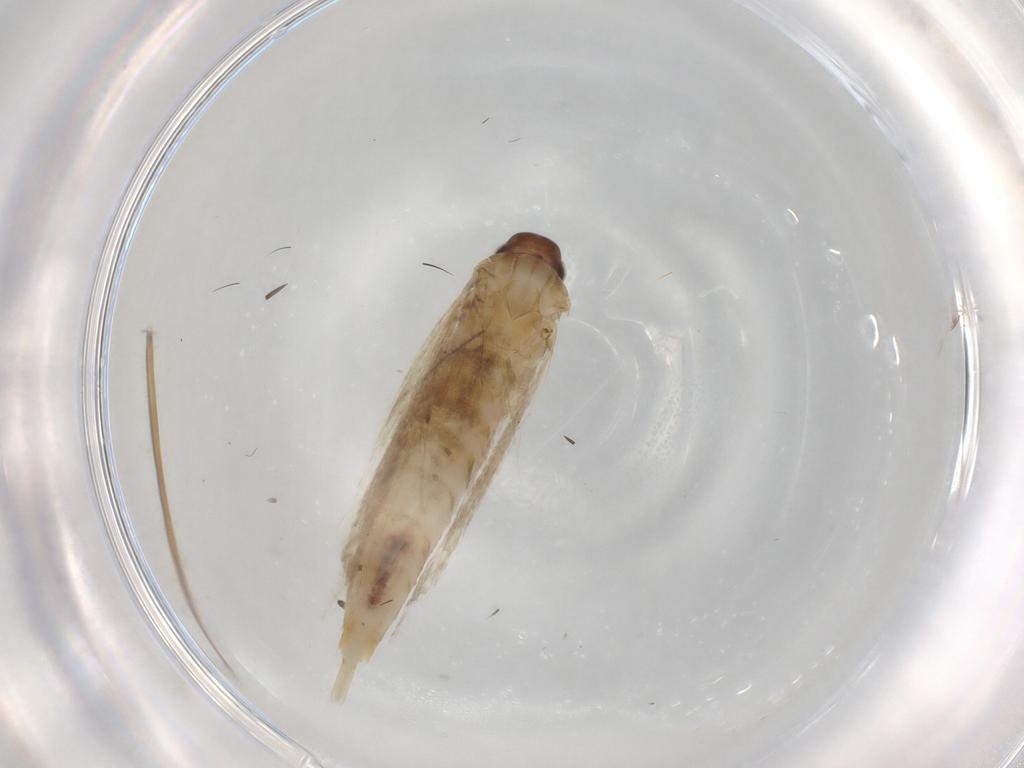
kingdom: Animalia
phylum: Arthropoda
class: Insecta
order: Lepidoptera
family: Gelechiidae
